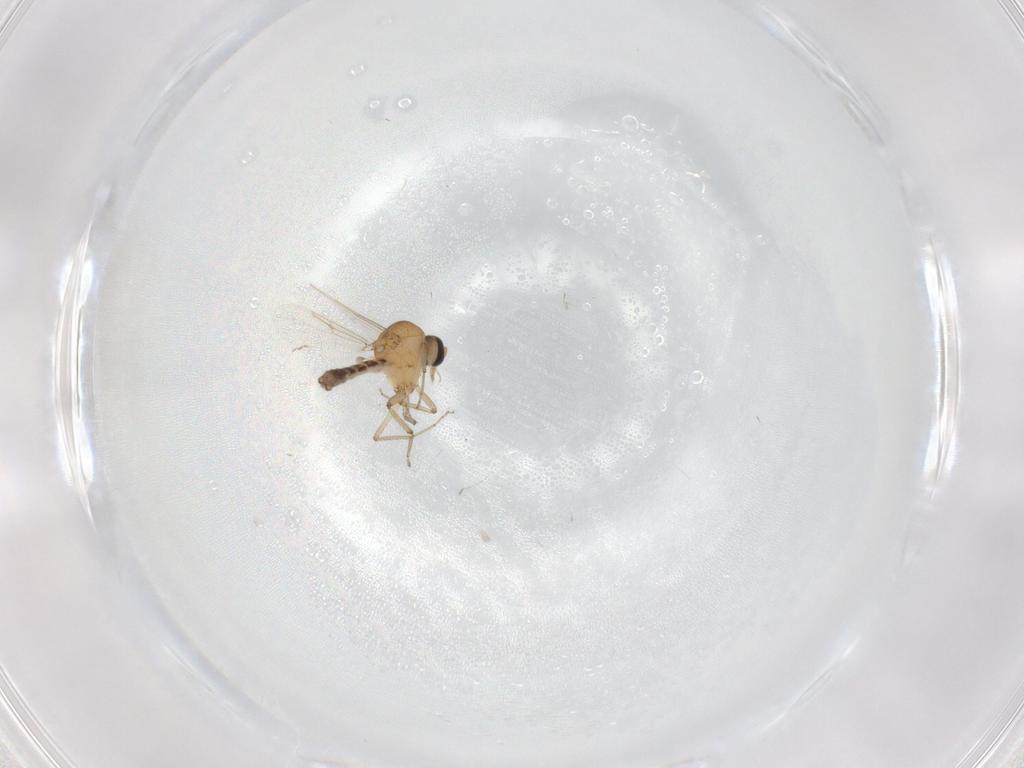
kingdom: Animalia
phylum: Arthropoda
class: Insecta
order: Diptera
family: Ceratopogonidae
